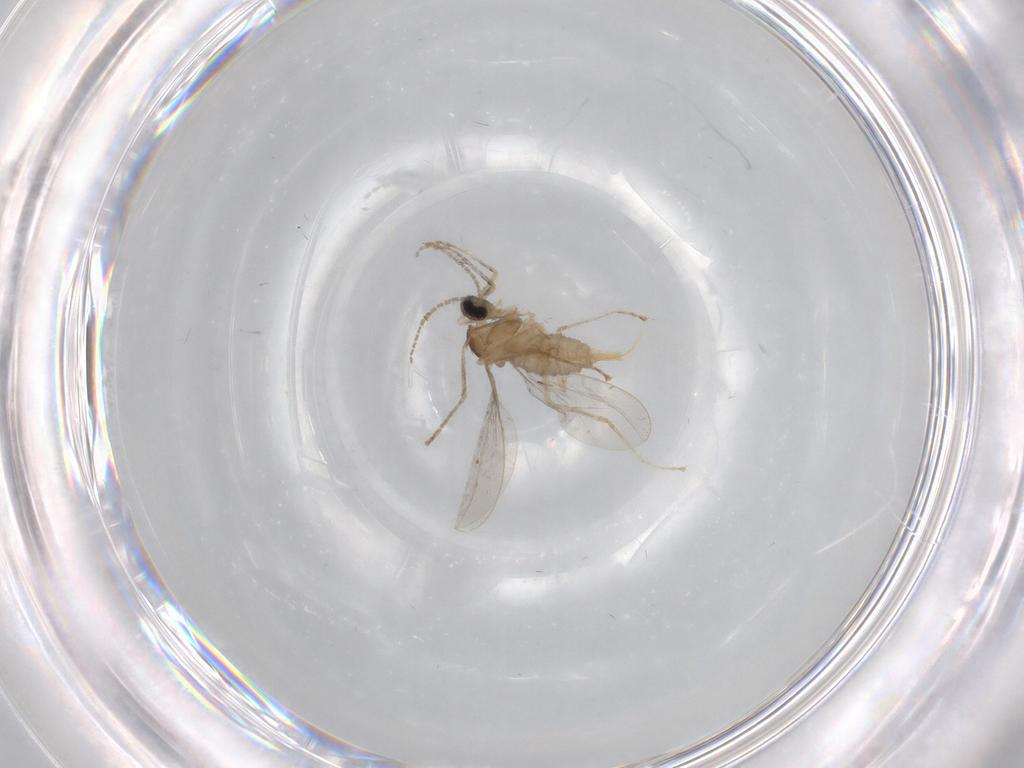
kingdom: Animalia
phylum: Arthropoda
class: Insecta
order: Diptera
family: Cecidomyiidae
